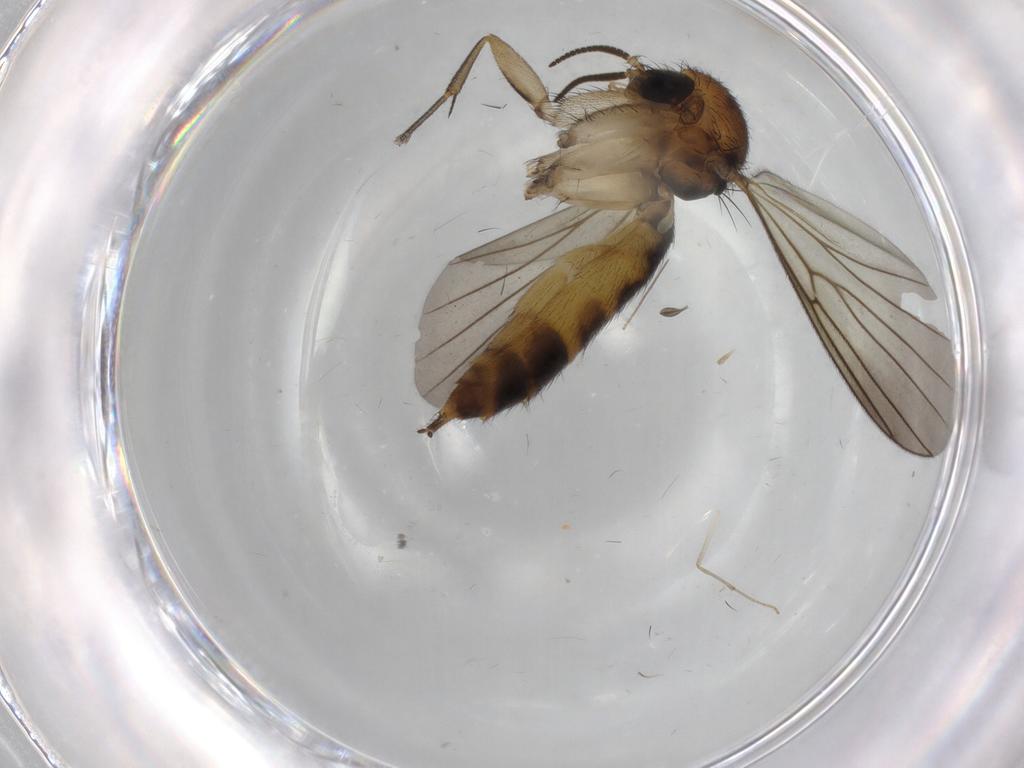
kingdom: Animalia
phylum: Arthropoda
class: Insecta
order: Diptera
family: Mycetophilidae
